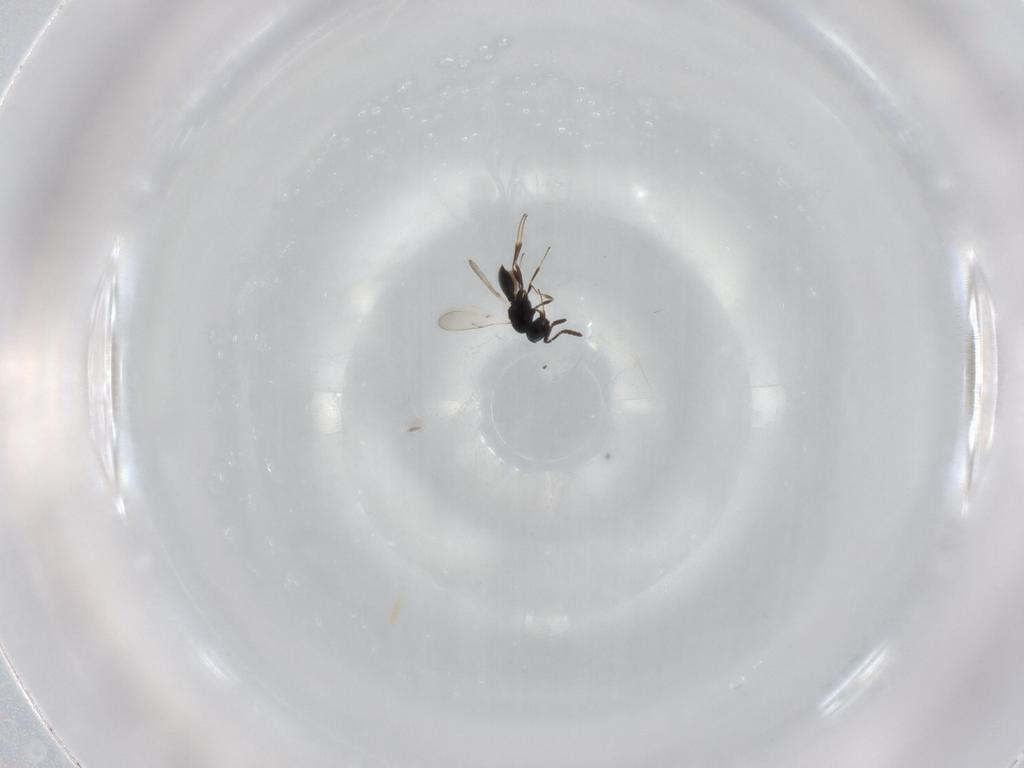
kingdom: Animalia
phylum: Arthropoda
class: Insecta
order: Hymenoptera
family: Scelionidae
